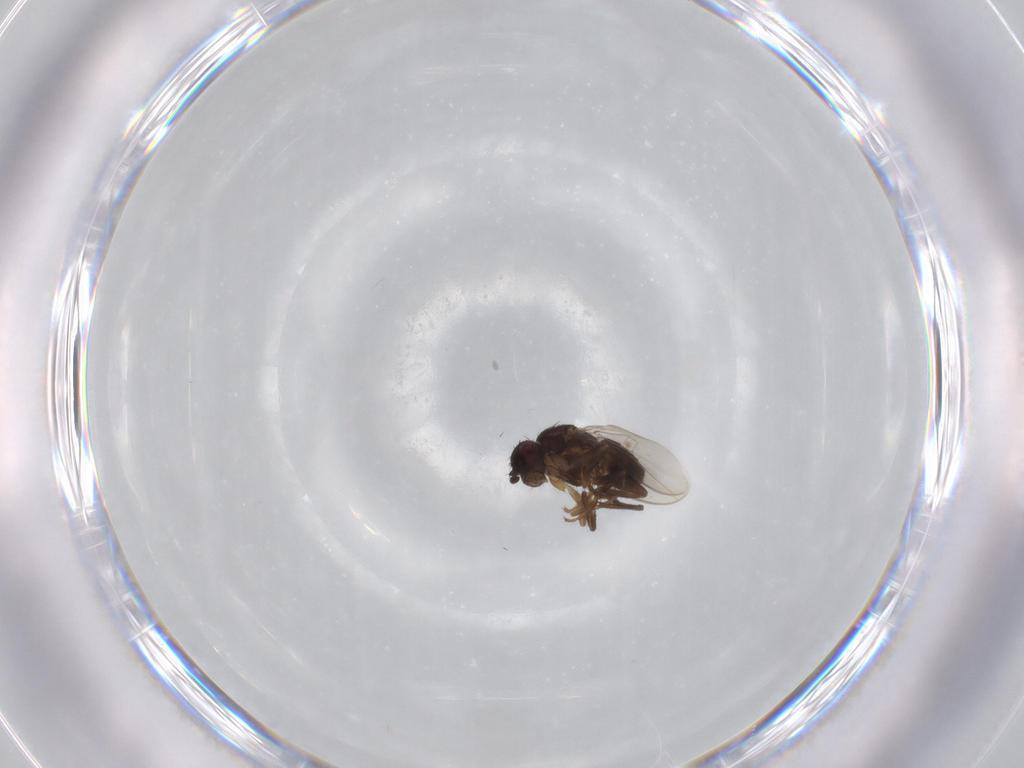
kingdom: Animalia
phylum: Arthropoda
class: Insecta
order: Diptera
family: Sphaeroceridae
